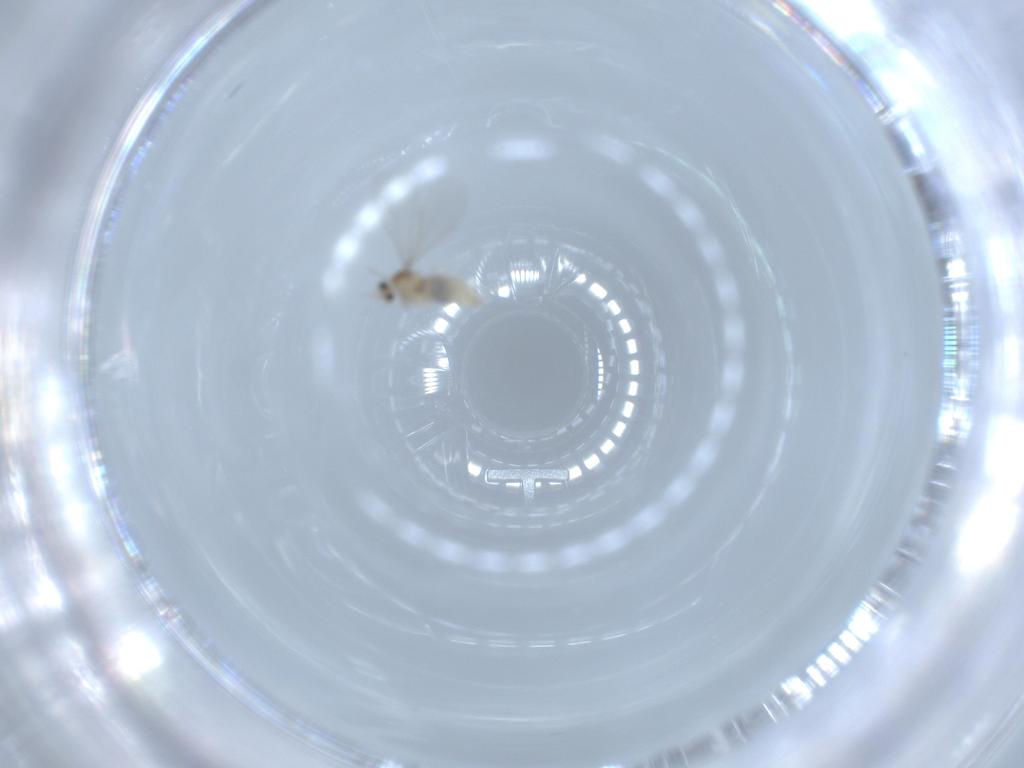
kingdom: Animalia
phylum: Arthropoda
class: Insecta
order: Diptera
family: Cecidomyiidae
